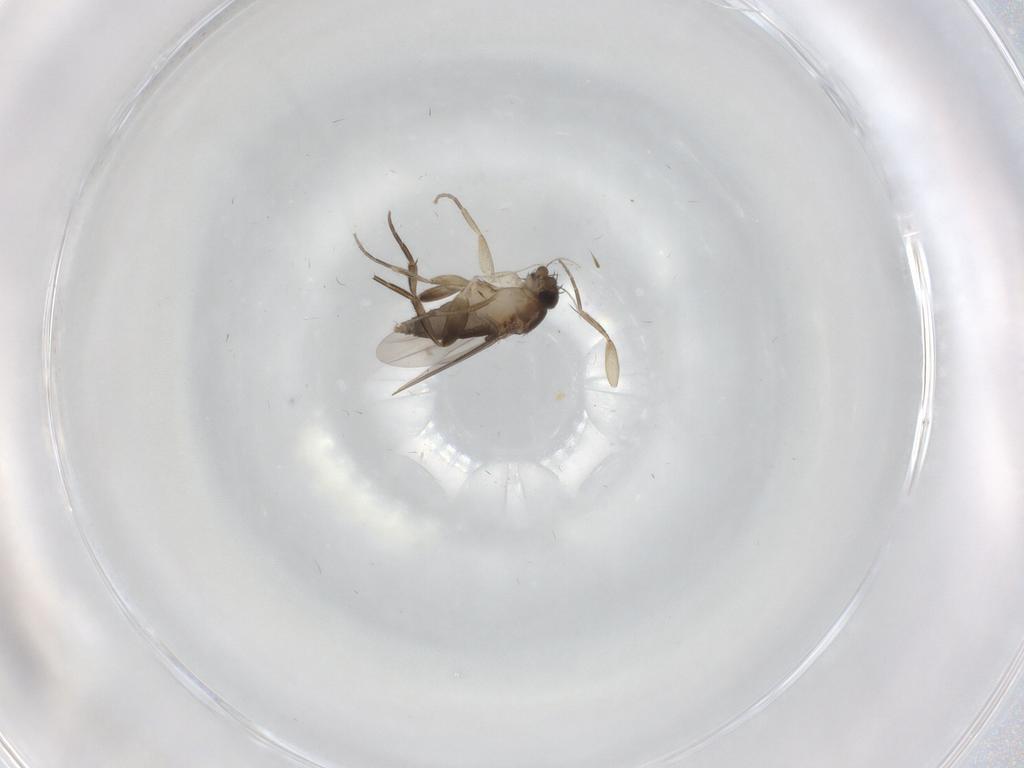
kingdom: Animalia
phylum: Arthropoda
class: Insecta
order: Diptera
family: Phoridae
